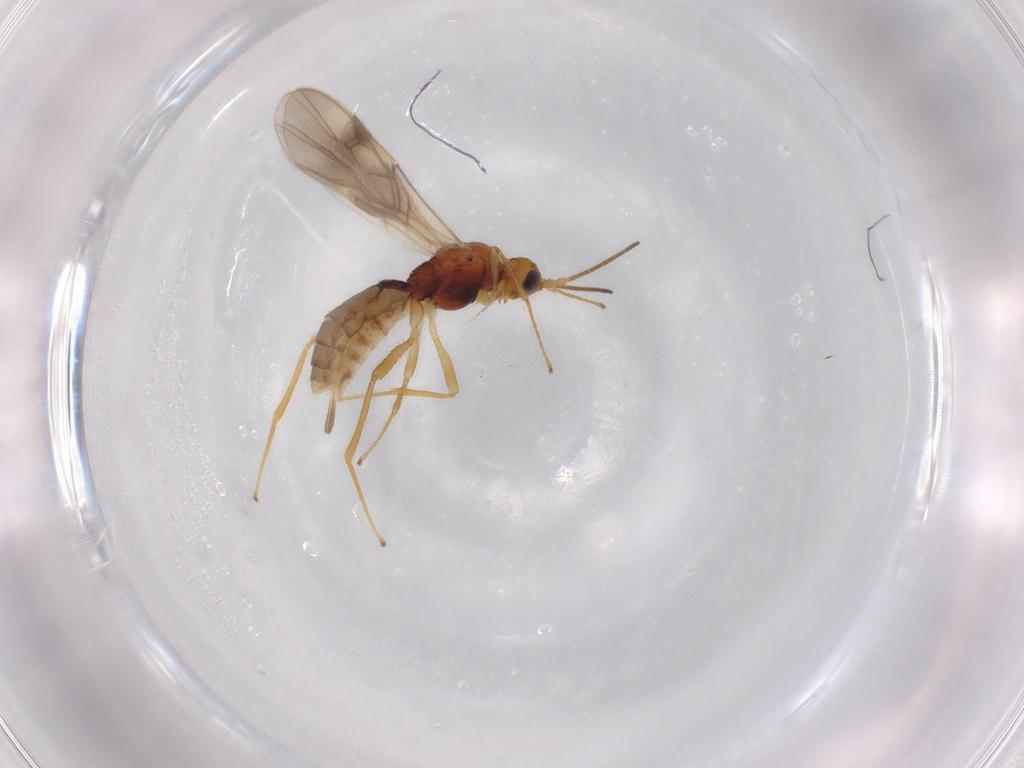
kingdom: Animalia
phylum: Arthropoda
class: Insecta
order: Hymenoptera
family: Braconidae
